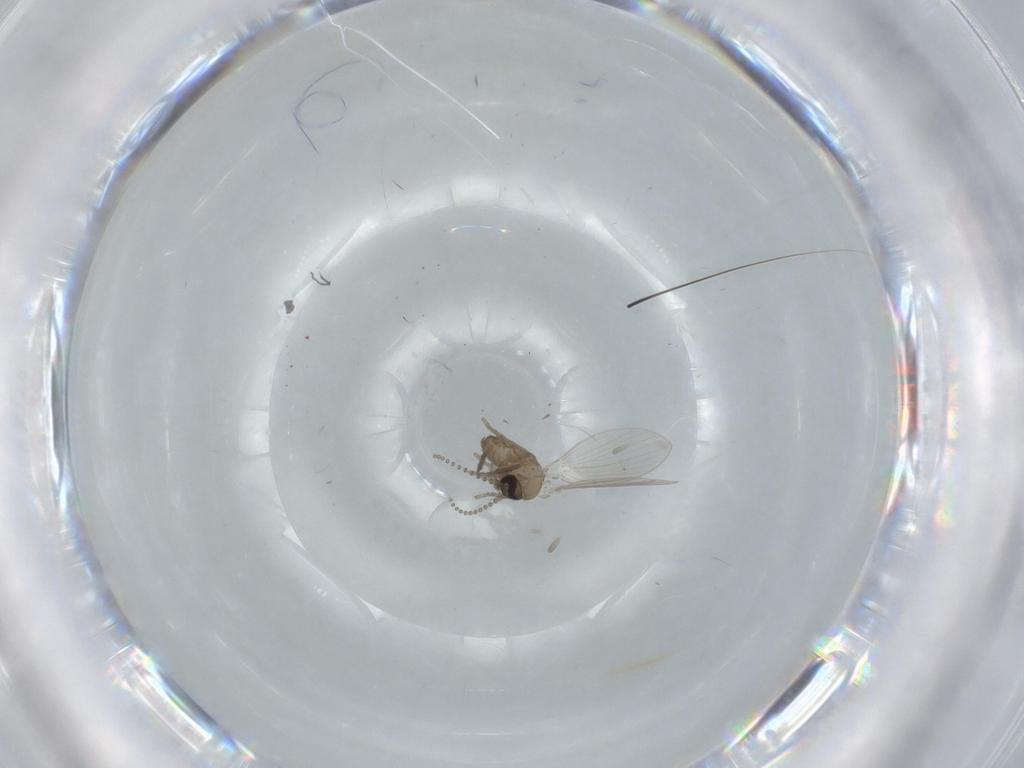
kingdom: Animalia
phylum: Arthropoda
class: Insecta
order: Diptera
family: Psychodidae
